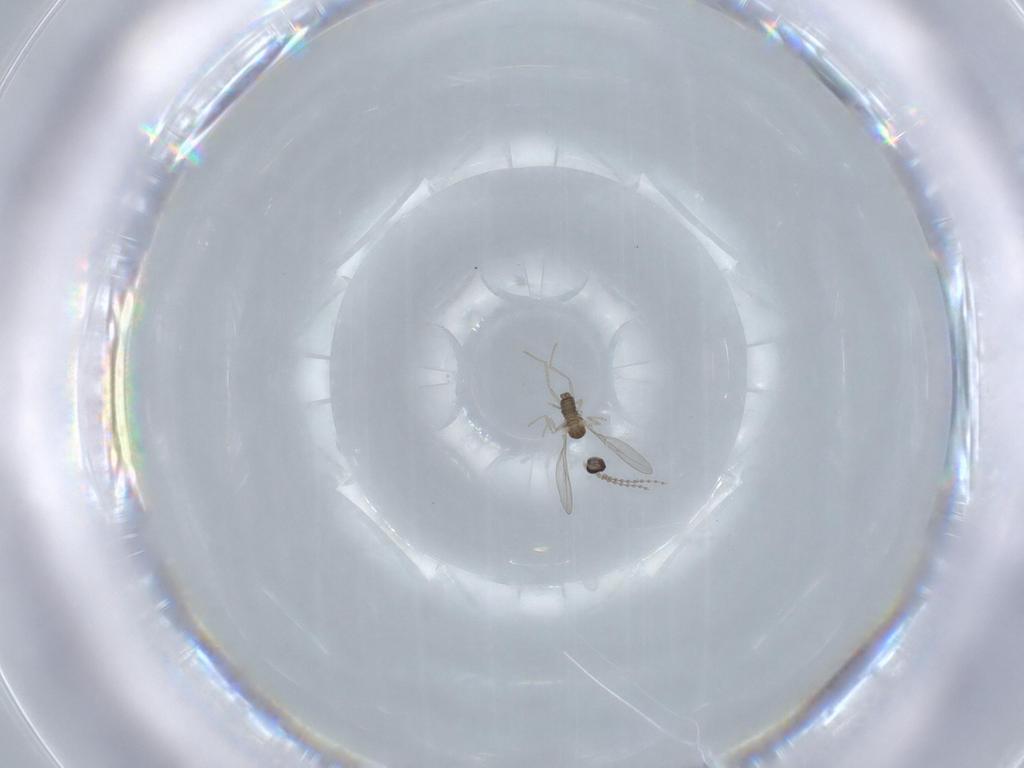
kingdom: Animalia
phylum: Arthropoda
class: Insecta
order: Diptera
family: Cecidomyiidae
